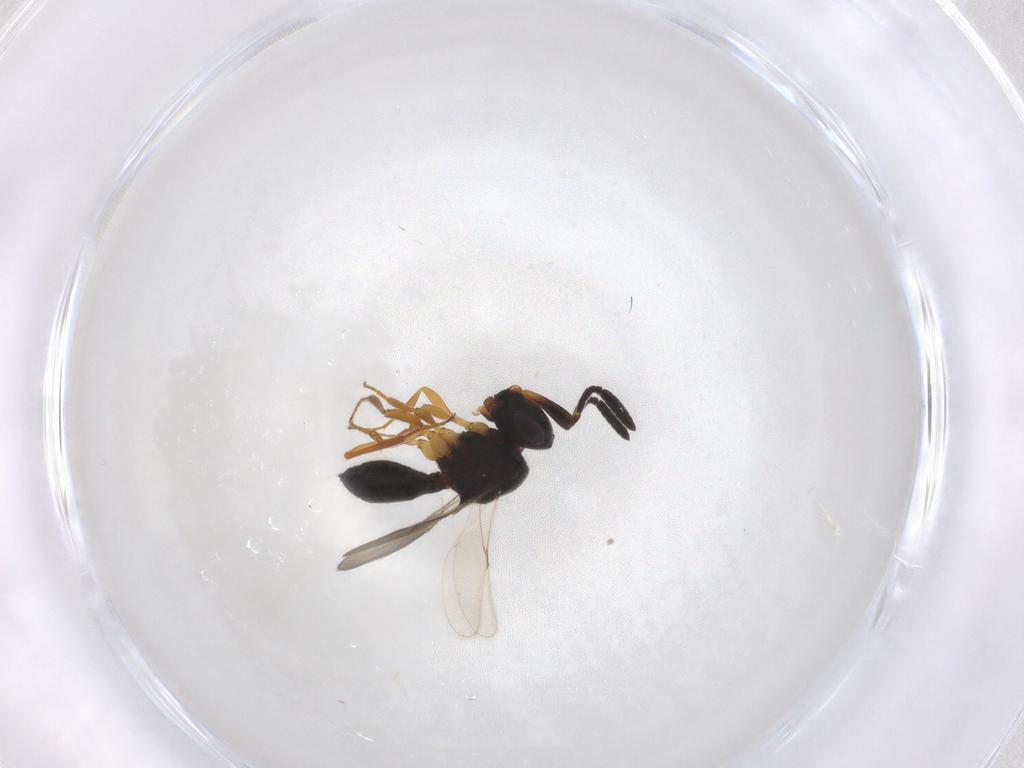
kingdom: Animalia
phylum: Arthropoda
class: Insecta
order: Hymenoptera
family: Scelionidae
